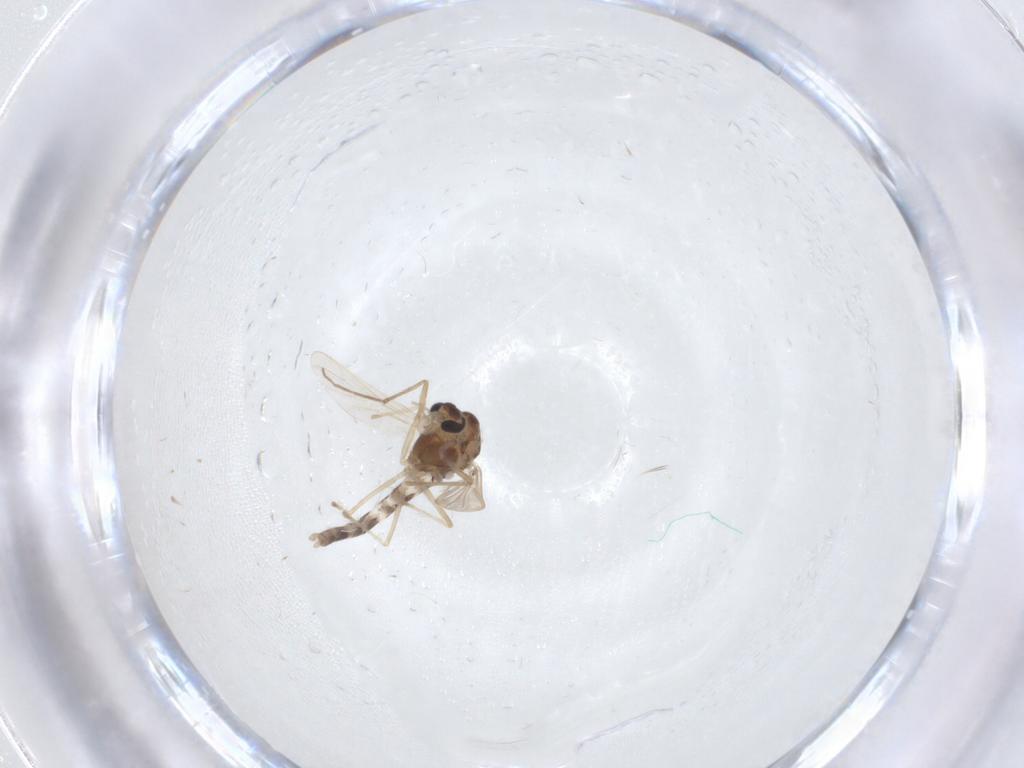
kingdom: Animalia
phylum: Arthropoda
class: Insecta
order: Diptera
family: Chironomidae
